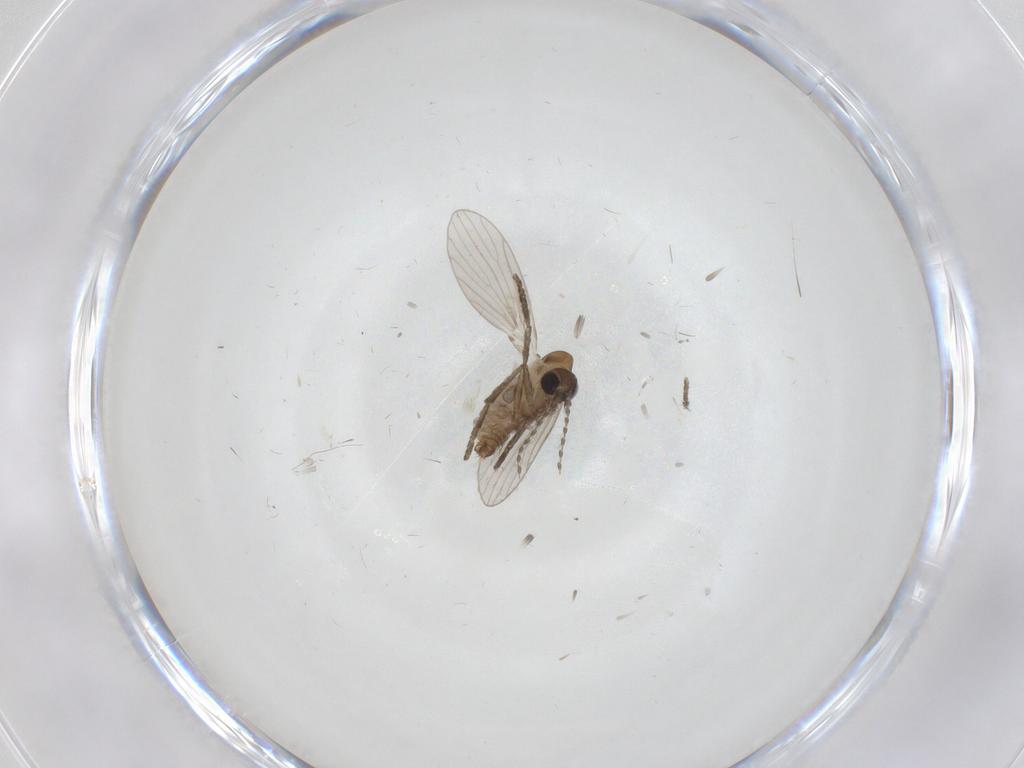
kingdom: Animalia
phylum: Arthropoda
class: Insecta
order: Diptera
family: Cecidomyiidae
